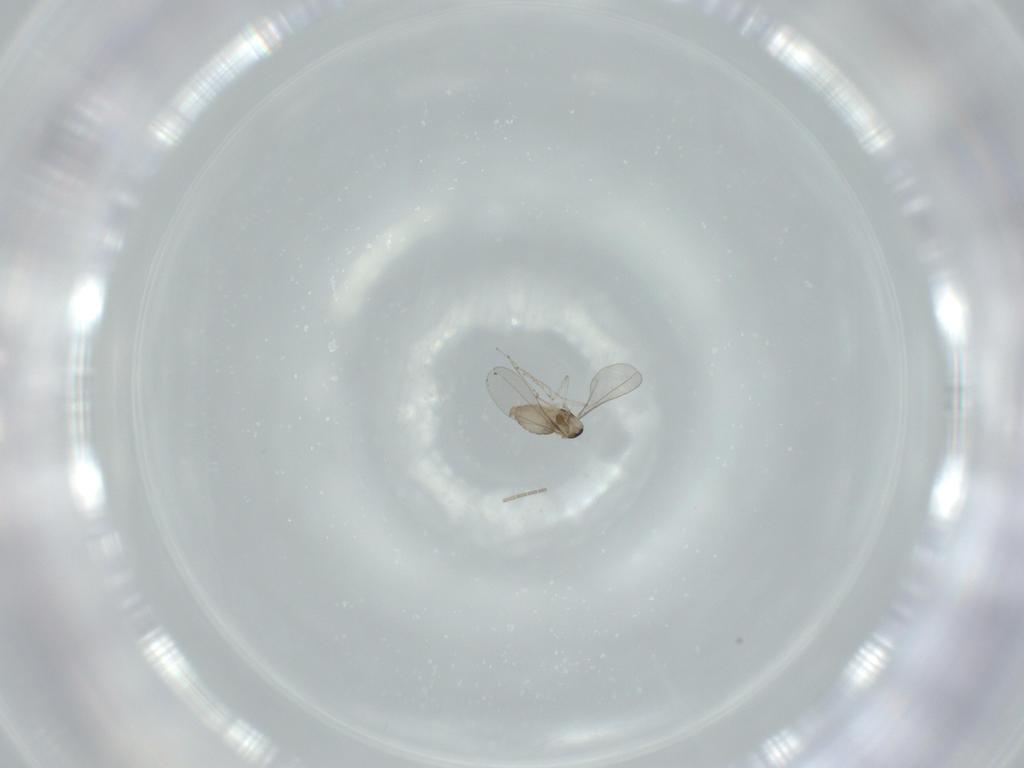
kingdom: Animalia
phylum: Arthropoda
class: Insecta
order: Diptera
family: Cecidomyiidae
